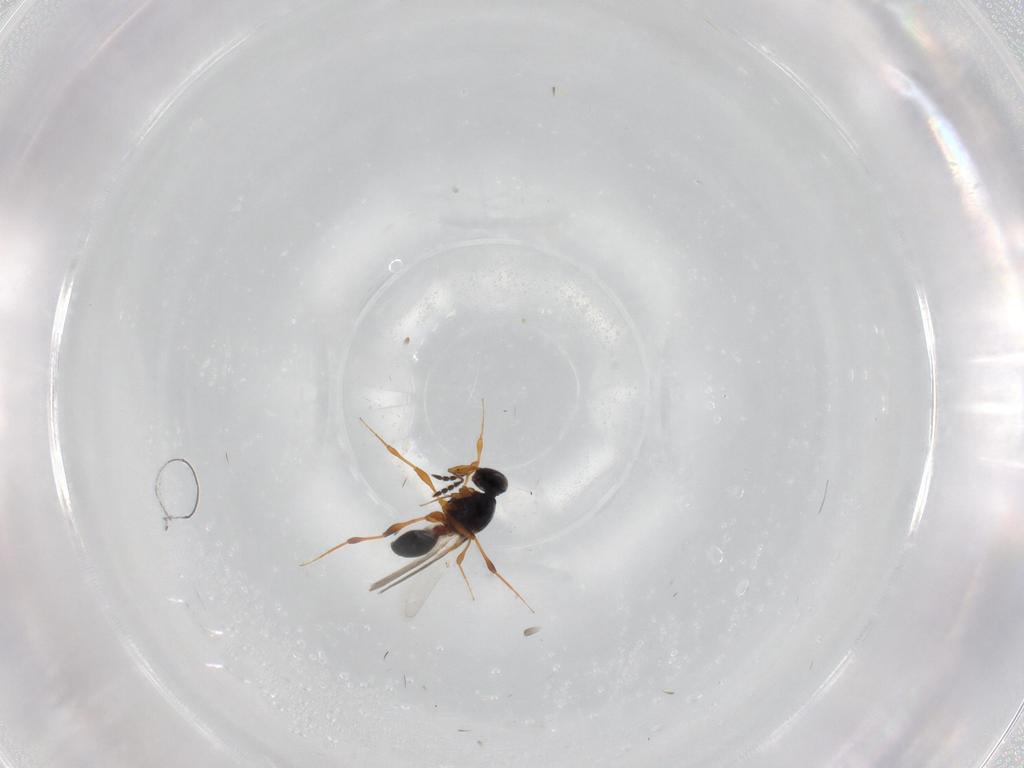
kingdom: Animalia
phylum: Arthropoda
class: Insecta
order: Hymenoptera
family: Platygastridae
